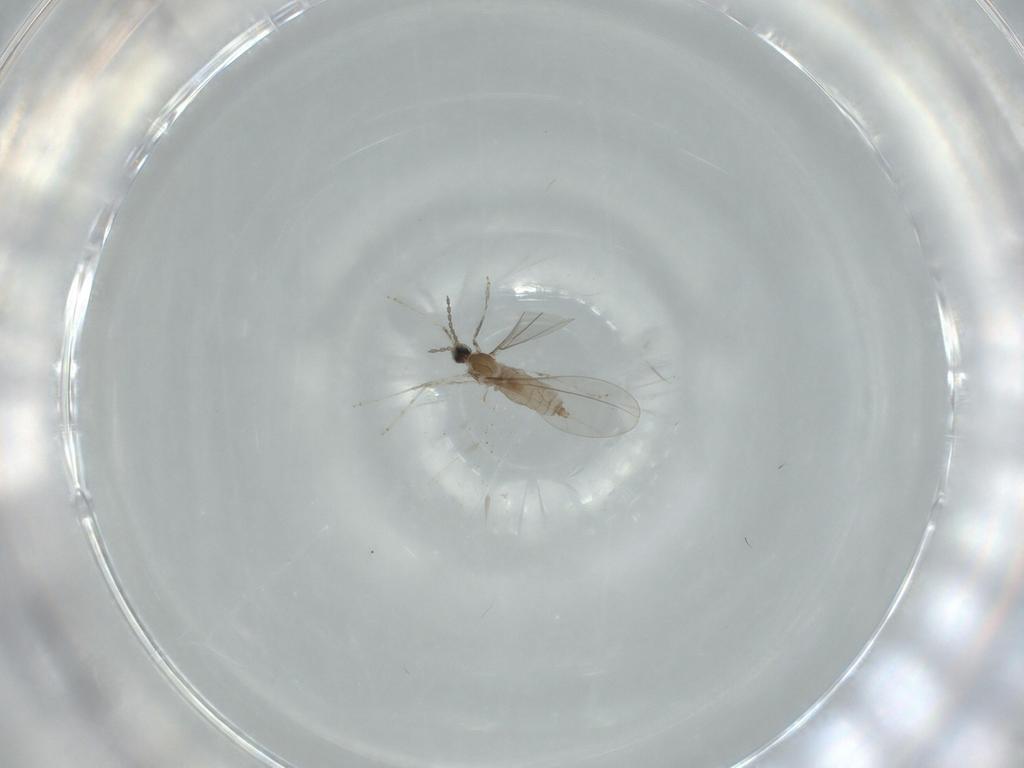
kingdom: Animalia
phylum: Arthropoda
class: Insecta
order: Diptera
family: Cecidomyiidae
